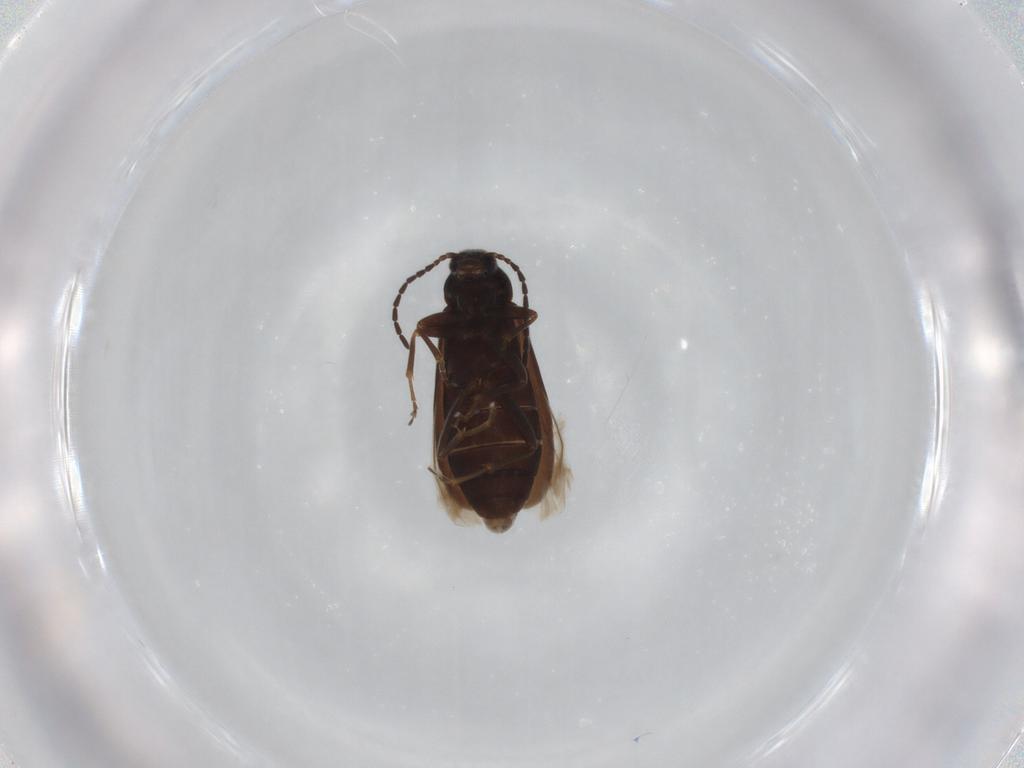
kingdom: Animalia
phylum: Arthropoda
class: Insecta
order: Coleoptera
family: Scraptiidae
